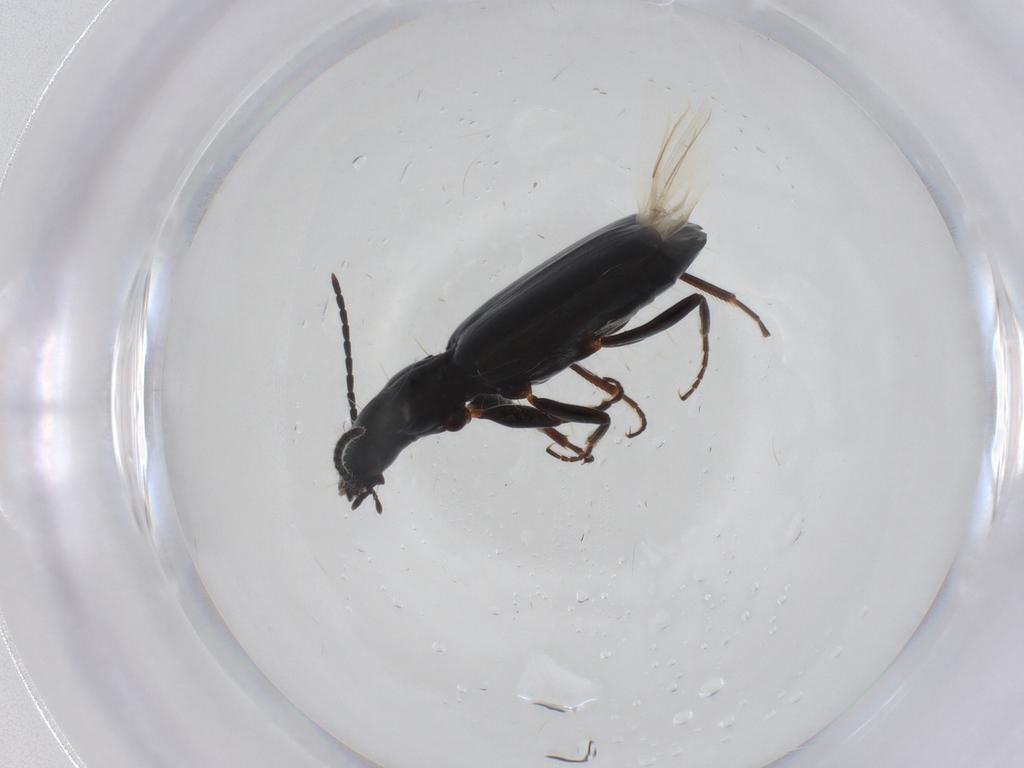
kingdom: Animalia
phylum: Arthropoda
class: Insecta
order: Coleoptera
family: Carabidae
